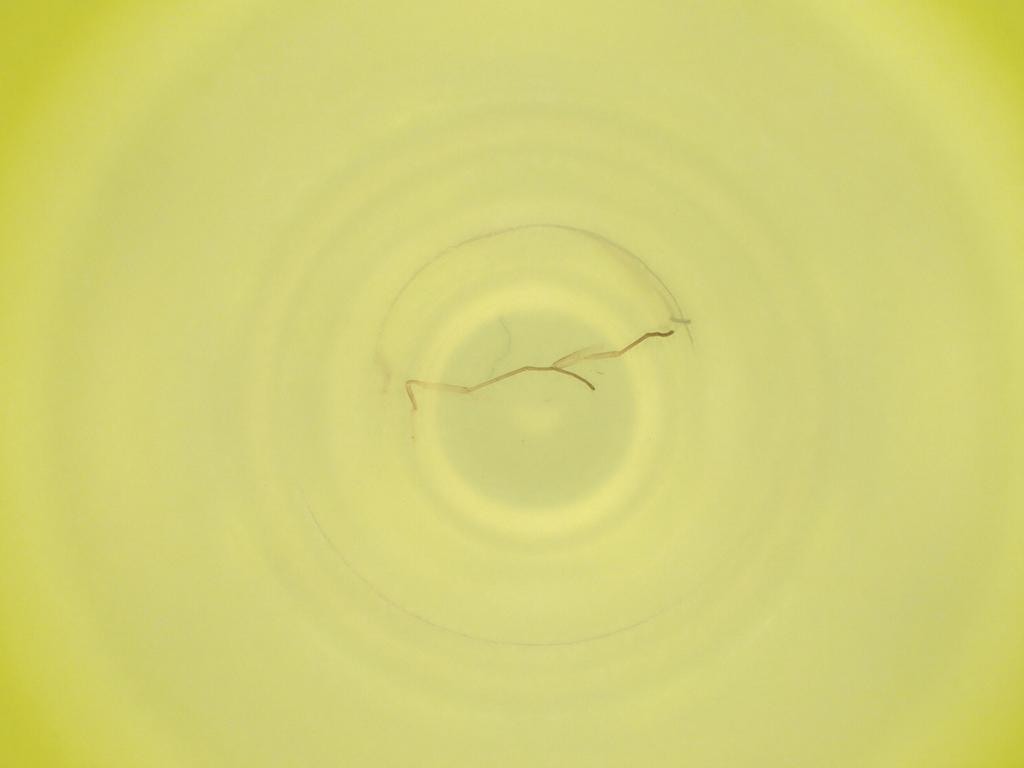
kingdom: Animalia
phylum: Arthropoda
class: Insecta
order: Diptera
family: Cecidomyiidae
